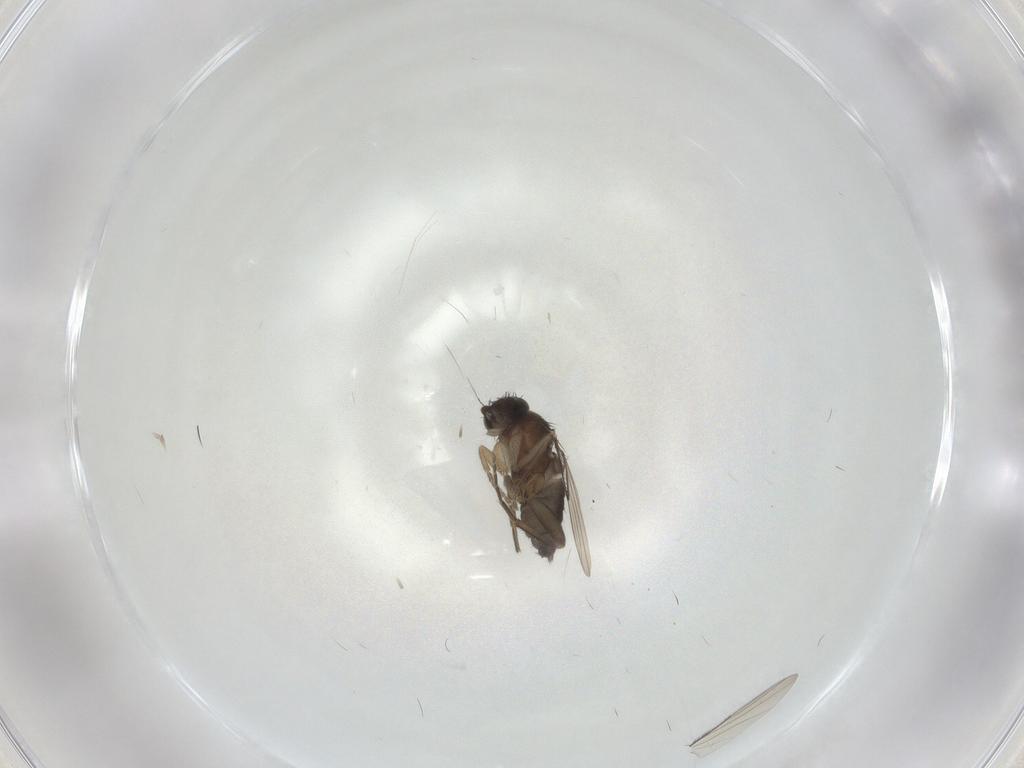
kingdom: Animalia
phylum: Arthropoda
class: Insecta
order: Diptera
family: Phoridae
